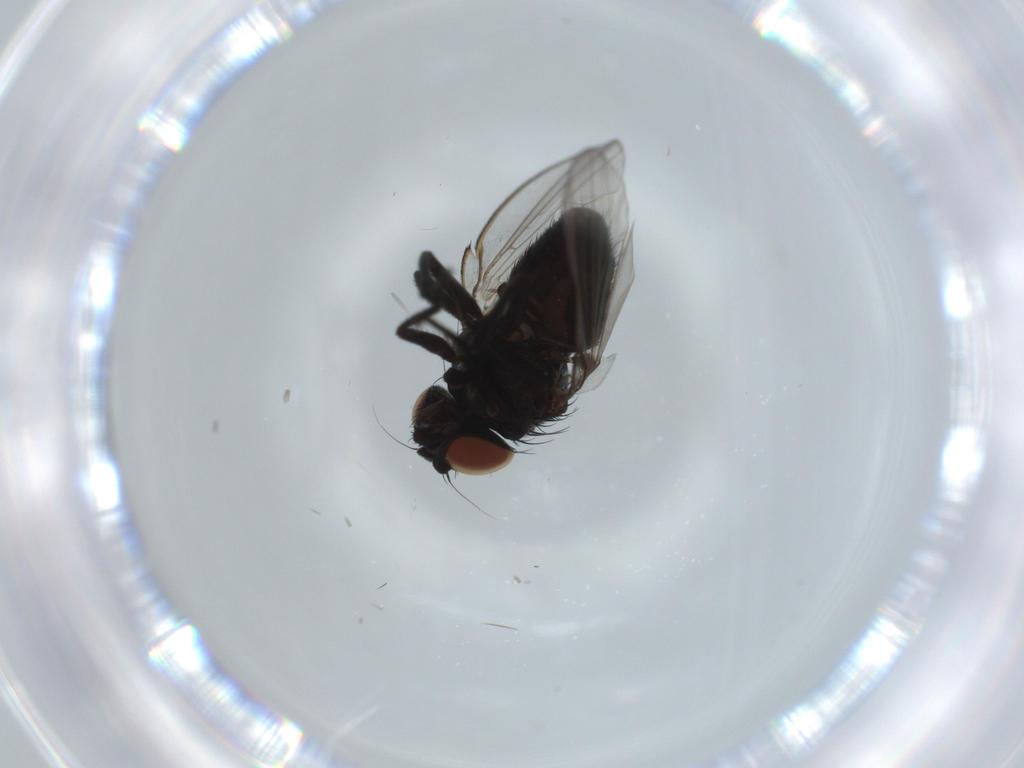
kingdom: Animalia
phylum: Arthropoda
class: Insecta
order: Diptera
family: Milichiidae
